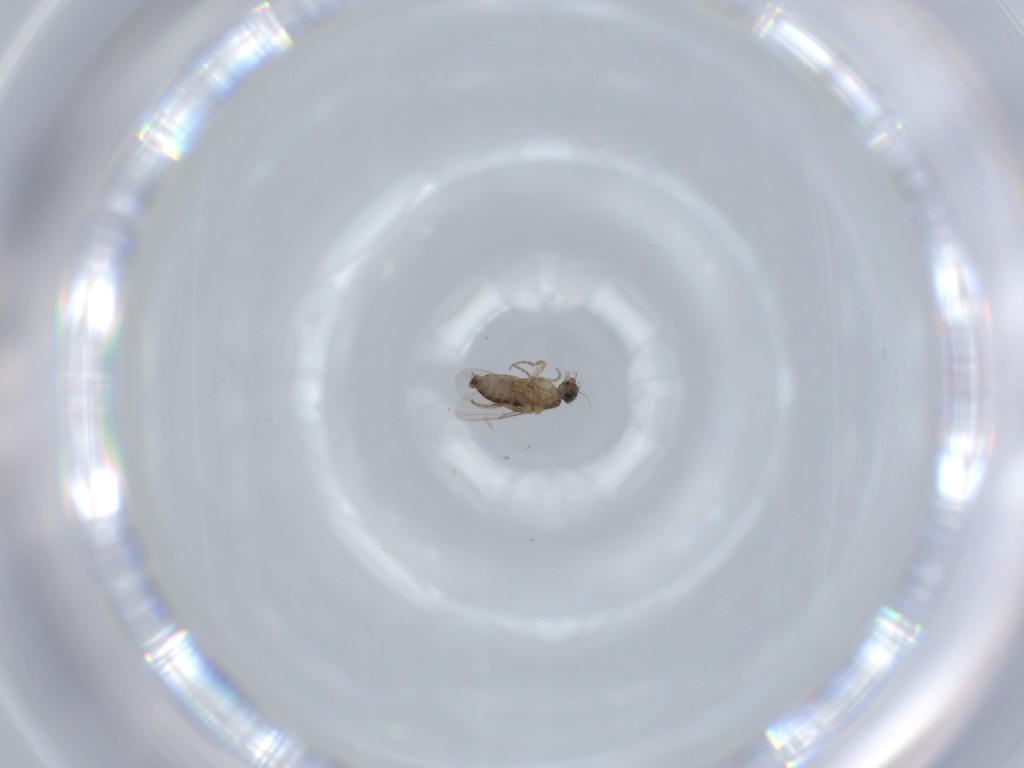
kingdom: Animalia
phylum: Arthropoda
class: Insecta
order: Diptera
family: Phoridae
